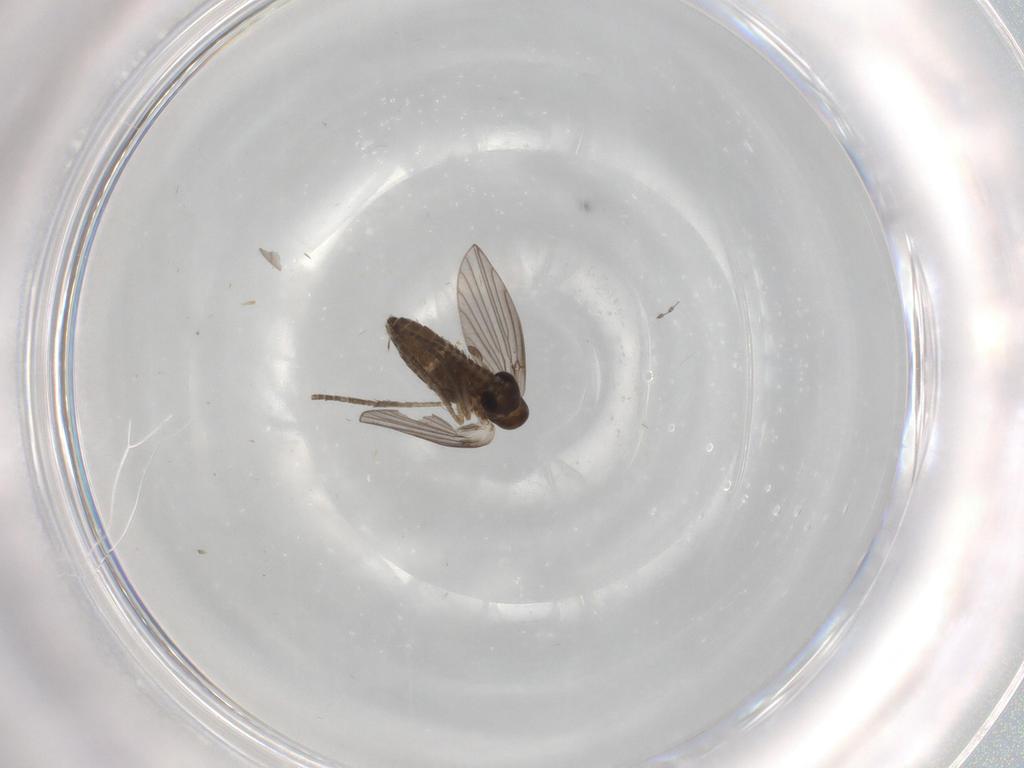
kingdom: Animalia
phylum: Arthropoda
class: Insecta
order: Diptera
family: Cecidomyiidae
